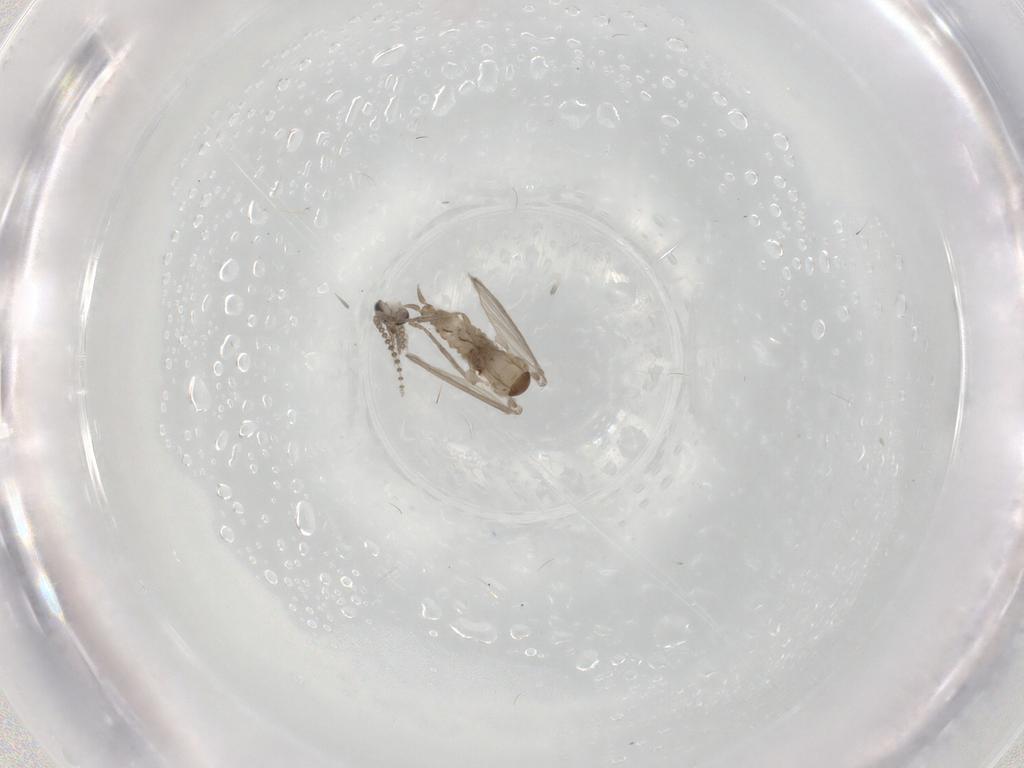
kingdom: Animalia
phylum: Arthropoda
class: Insecta
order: Diptera
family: Psychodidae
